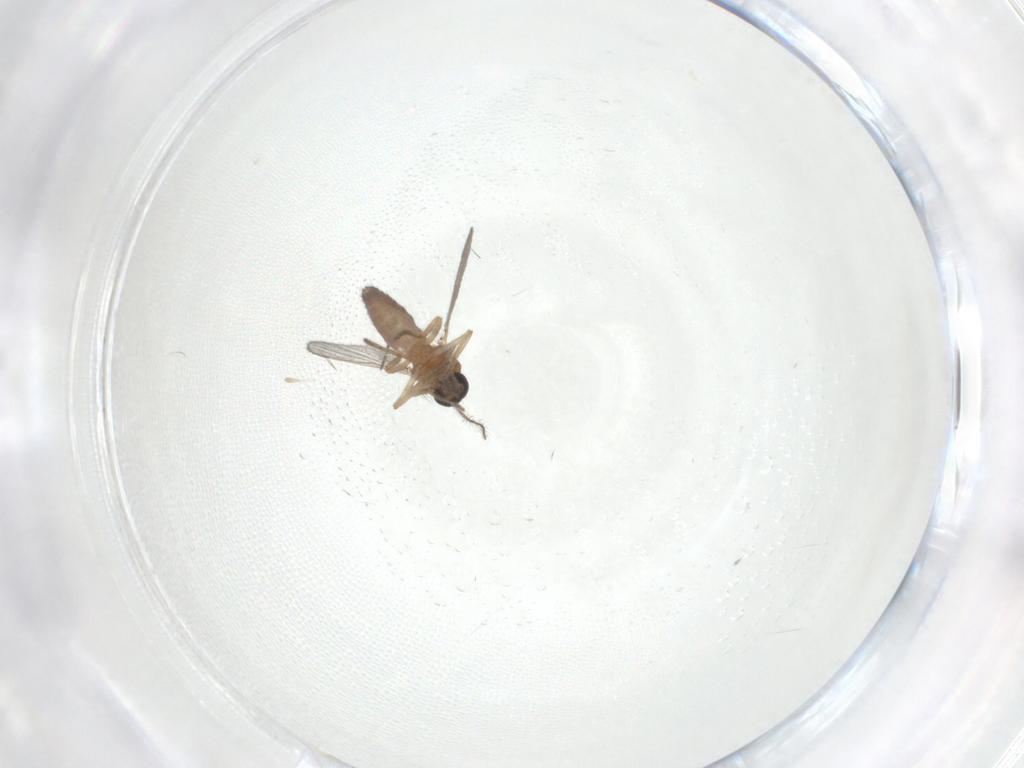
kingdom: Animalia
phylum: Arthropoda
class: Insecta
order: Diptera
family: Ceratopogonidae
